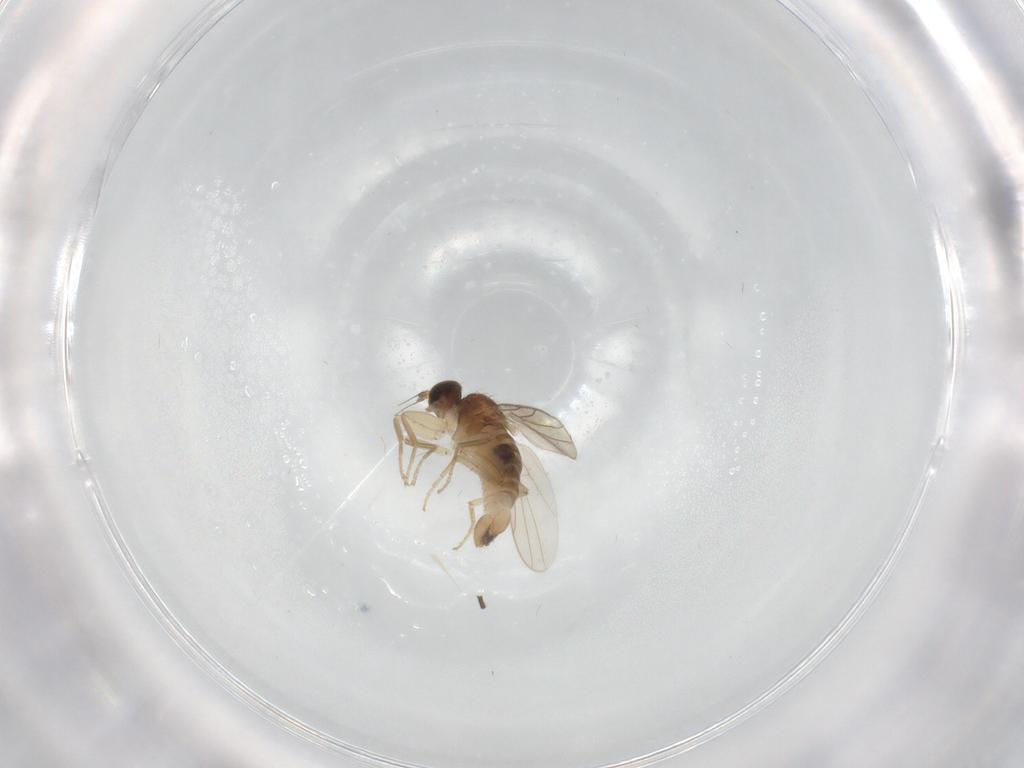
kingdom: Animalia
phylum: Arthropoda
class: Insecta
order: Diptera
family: Hybotidae
